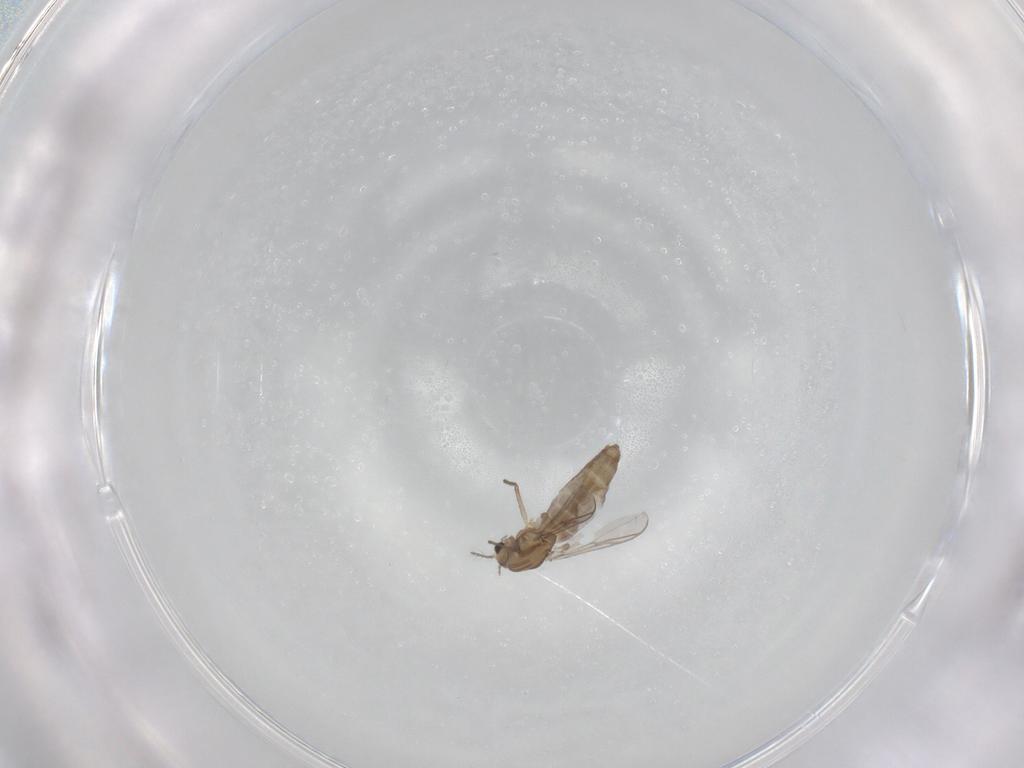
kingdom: Animalia
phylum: Arthropoda
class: Insecta
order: Diptera
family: Chironomidae
